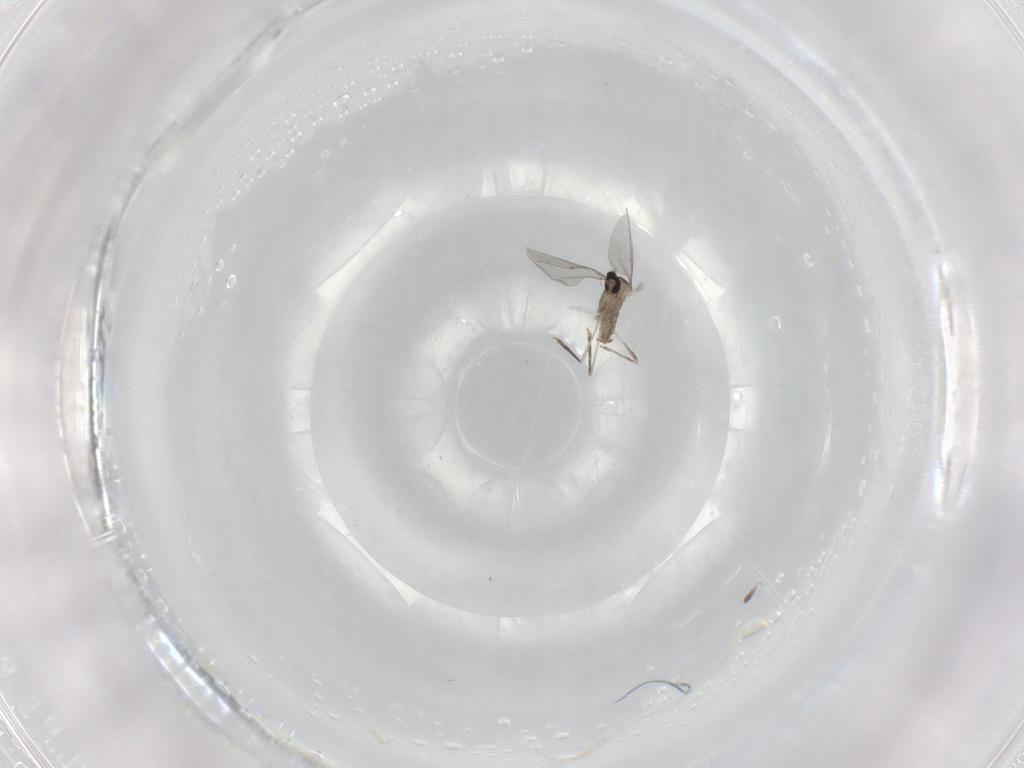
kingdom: Animalia
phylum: Arthropoda
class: Insecta
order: Diptera
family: Cecidomyiidae
